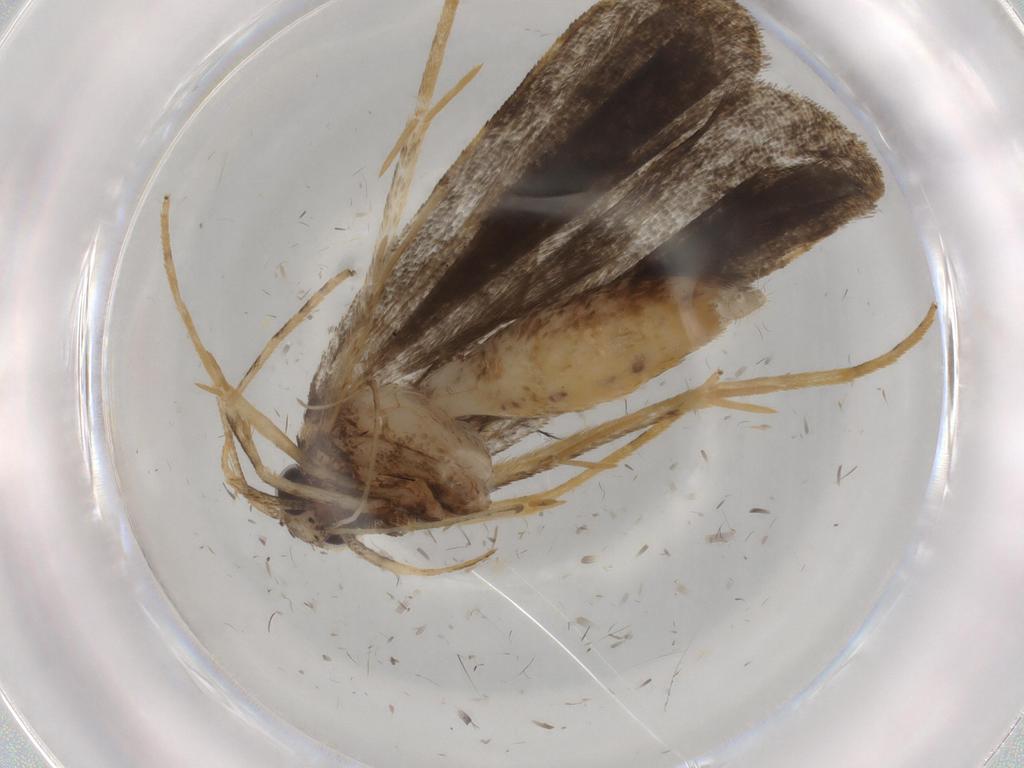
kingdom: Animalia
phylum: Arthropoda
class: Insecta
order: Lepidoptera
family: Cosmopterigidae
